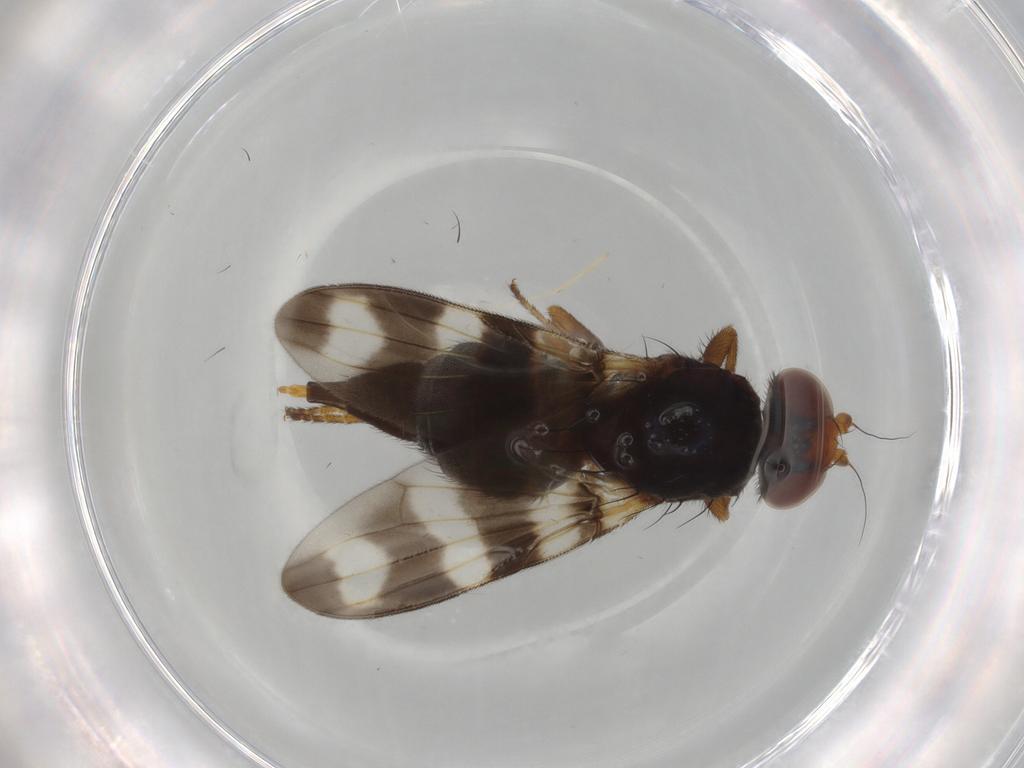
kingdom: Animalia
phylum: Arthropoda
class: Insecta
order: Diptera
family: Ulidiidae
